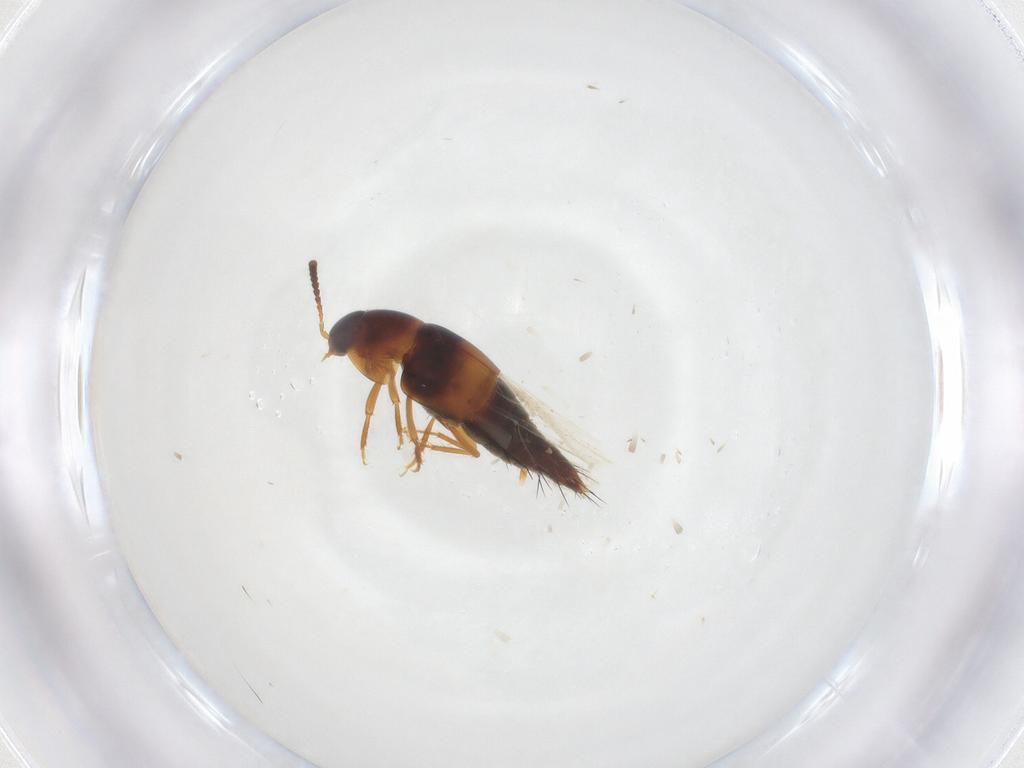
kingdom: Animalia
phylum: Arthropoda
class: Insecta
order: Coleoptera
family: Staphylinidae
